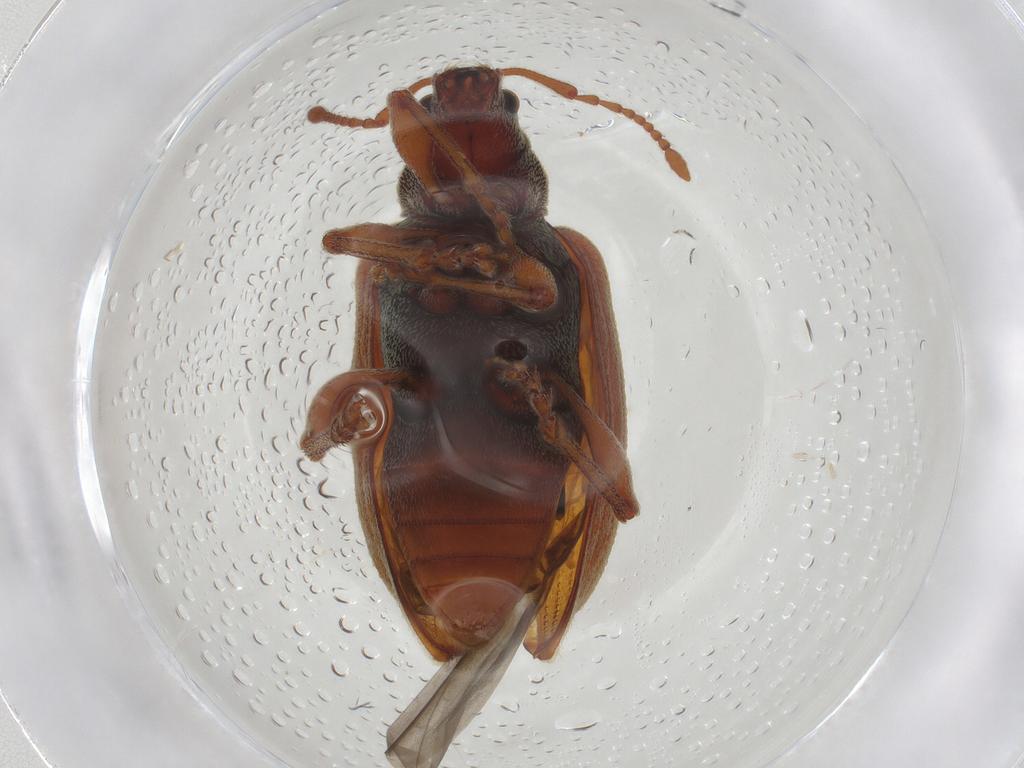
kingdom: Animalia
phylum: Arthropoda
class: Insecta
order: Coleoptera
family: Curculionidae
